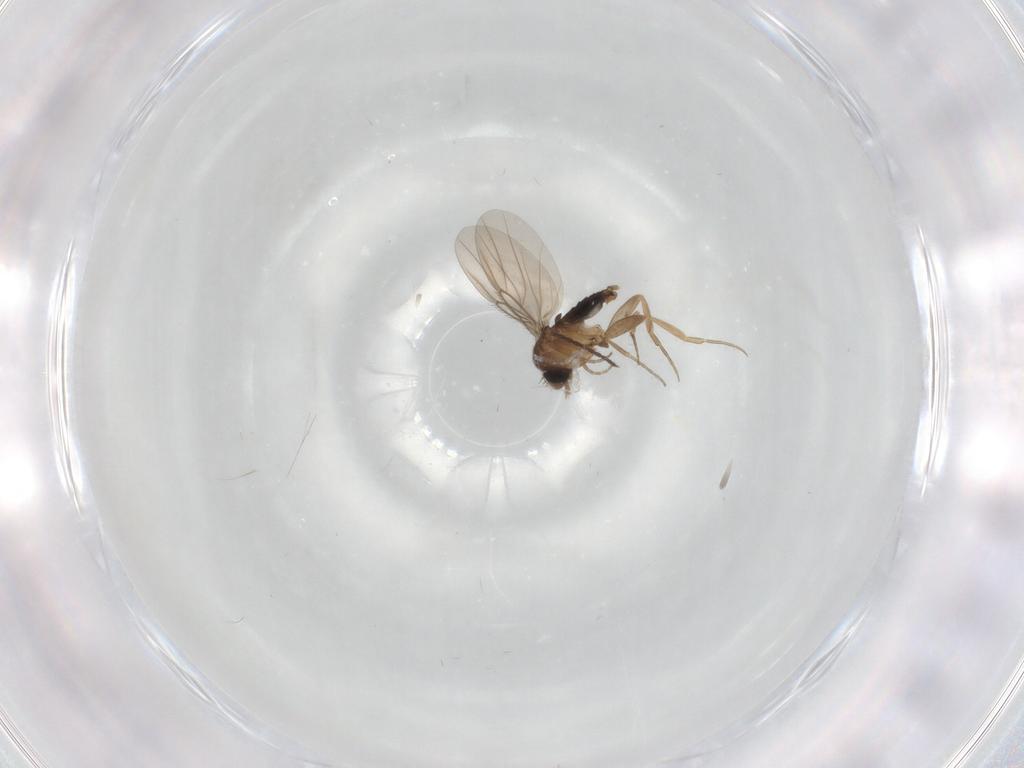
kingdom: Animalia
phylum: Arthropoda
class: Insecta
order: Diptera
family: Phoridae
